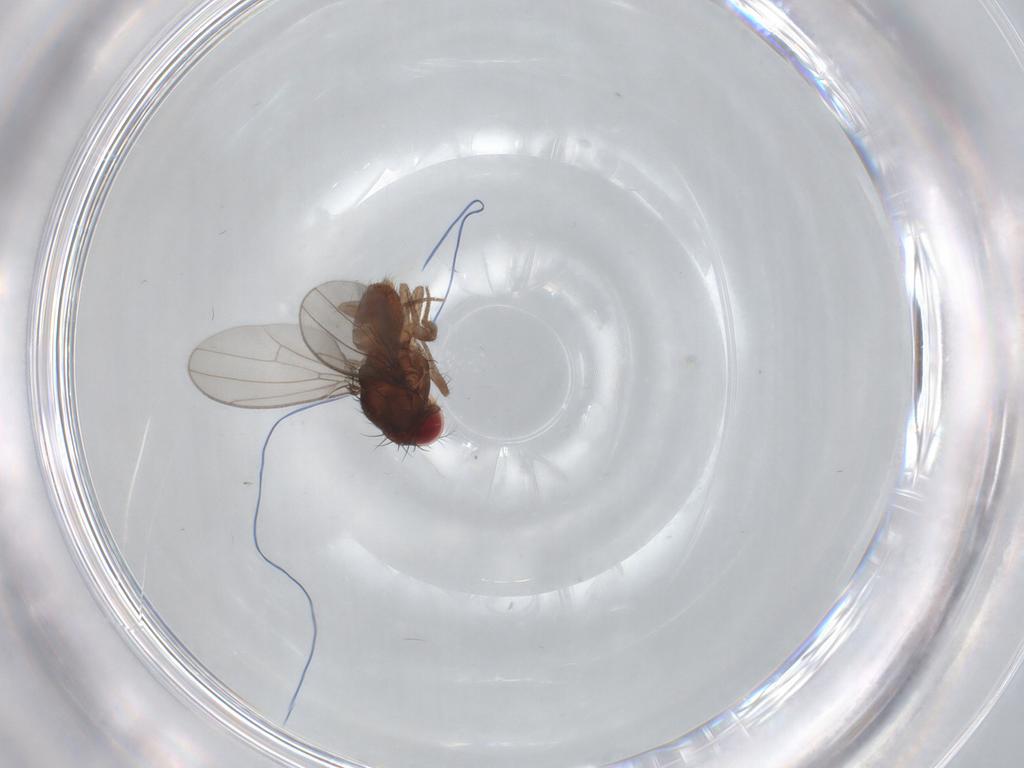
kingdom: Animalia
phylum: Arthropoda
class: Insecta
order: Diptera
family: Drosophilidae
